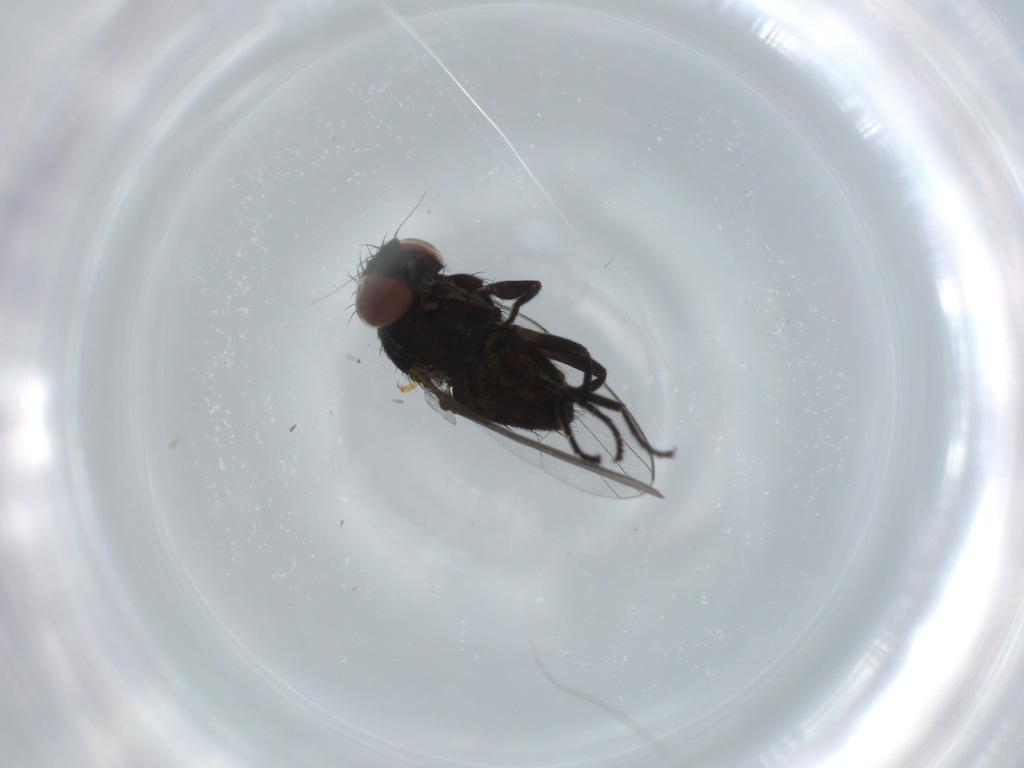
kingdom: Animalia
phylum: Arthropoda
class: Insecta
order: Diptera
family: Milichiidae
